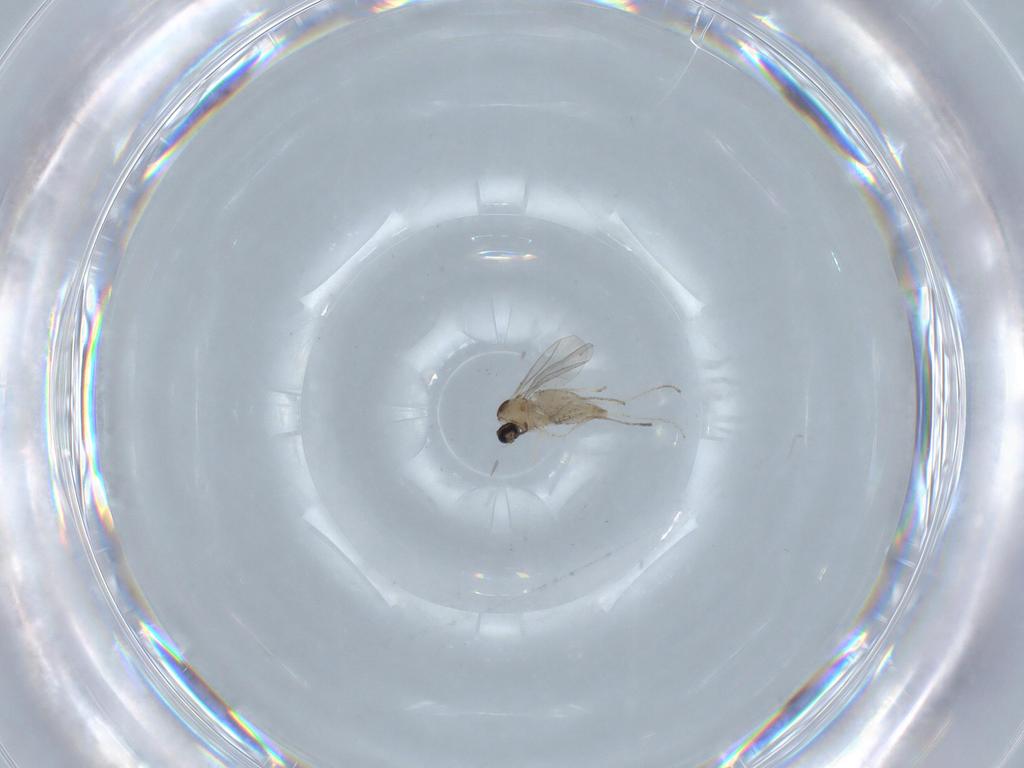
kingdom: Animalia
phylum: Arthropoda
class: Insecta
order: Diptera
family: Cecidomyiidae
